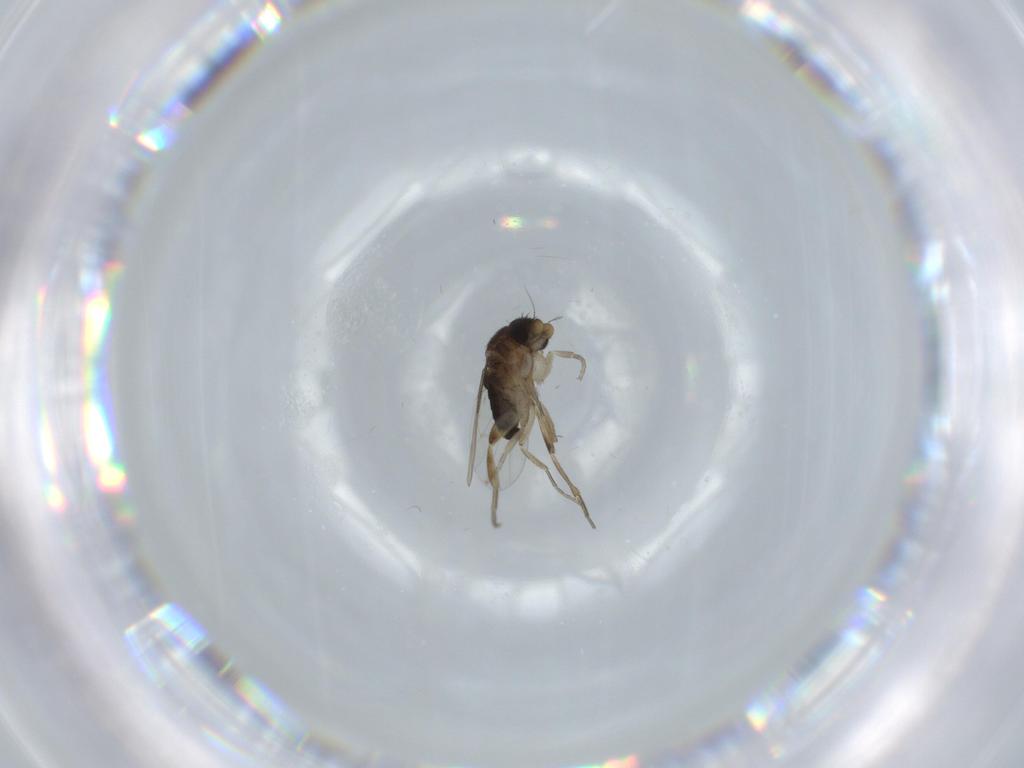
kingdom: Animalia
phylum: Arthropoda
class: Insecta
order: Diptera
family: Phoridae
